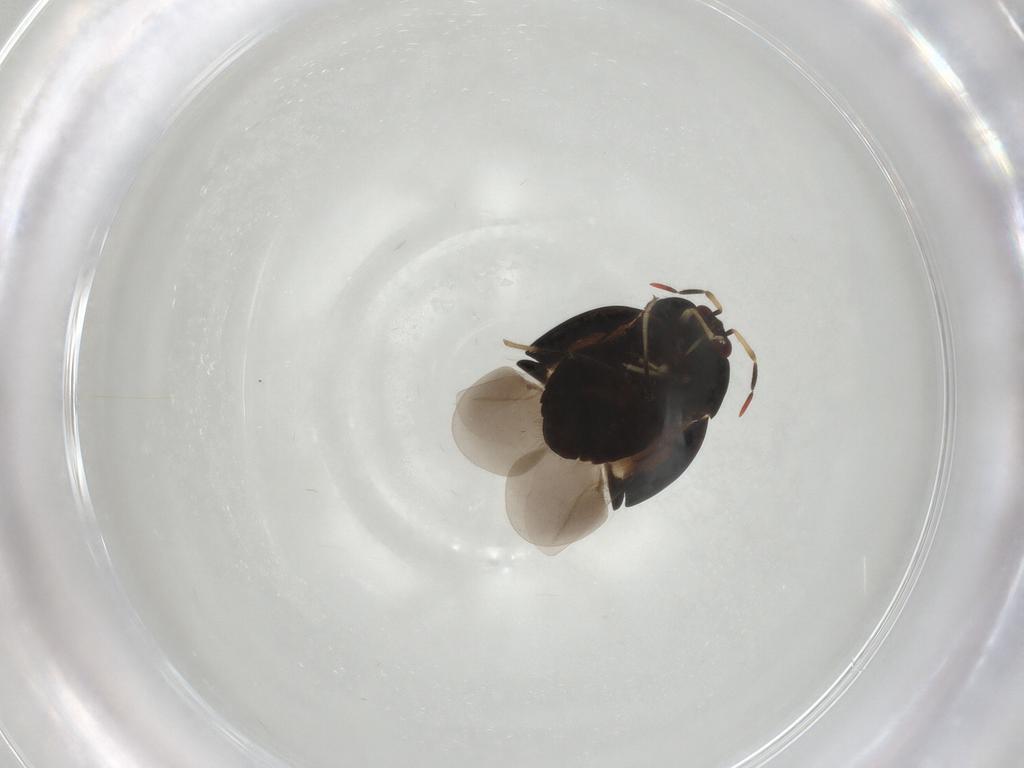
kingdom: Animalia
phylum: Arthropoda
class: Insecta
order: Hemiptera
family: Anthocoridae
